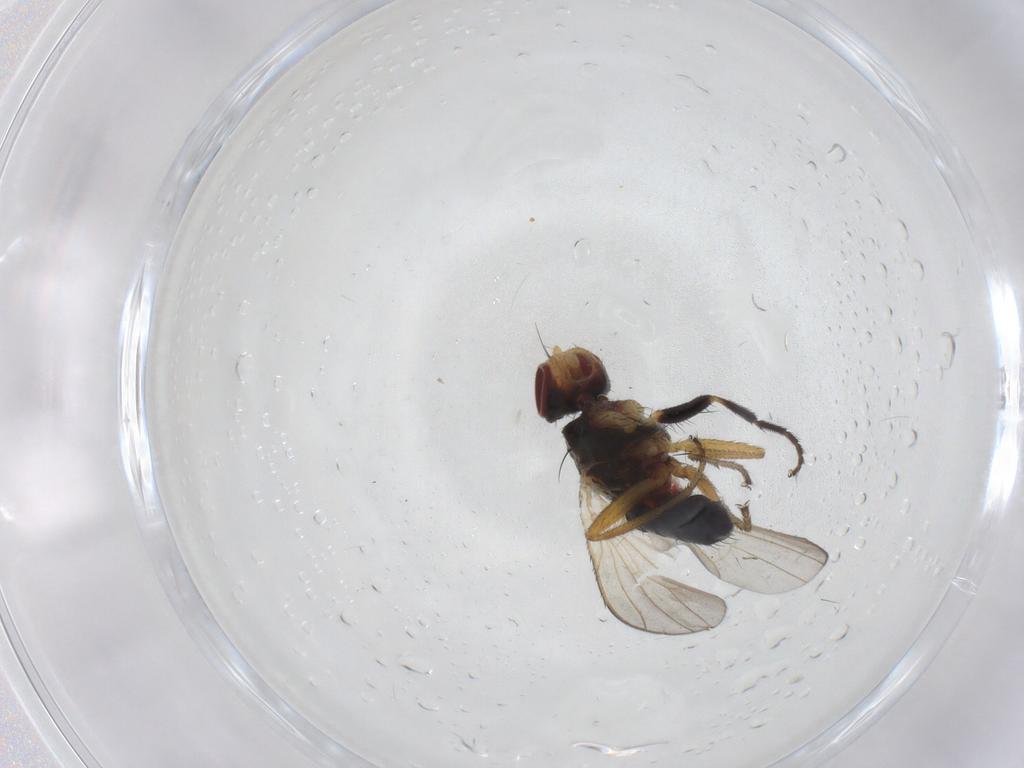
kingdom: Animalia
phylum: Arthropoda
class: Insecta
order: Diptera
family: Heleomyzidae
